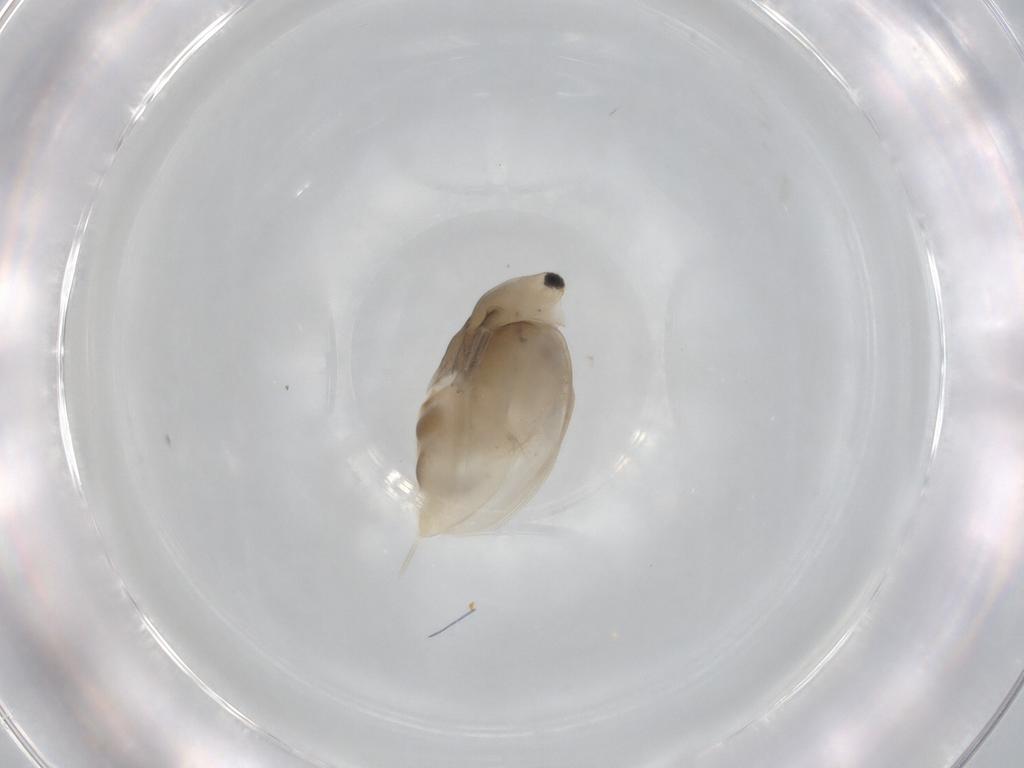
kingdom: Animalia
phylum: Arthropoda
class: Branchiopoda
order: Diplostraca
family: Daphniidae
